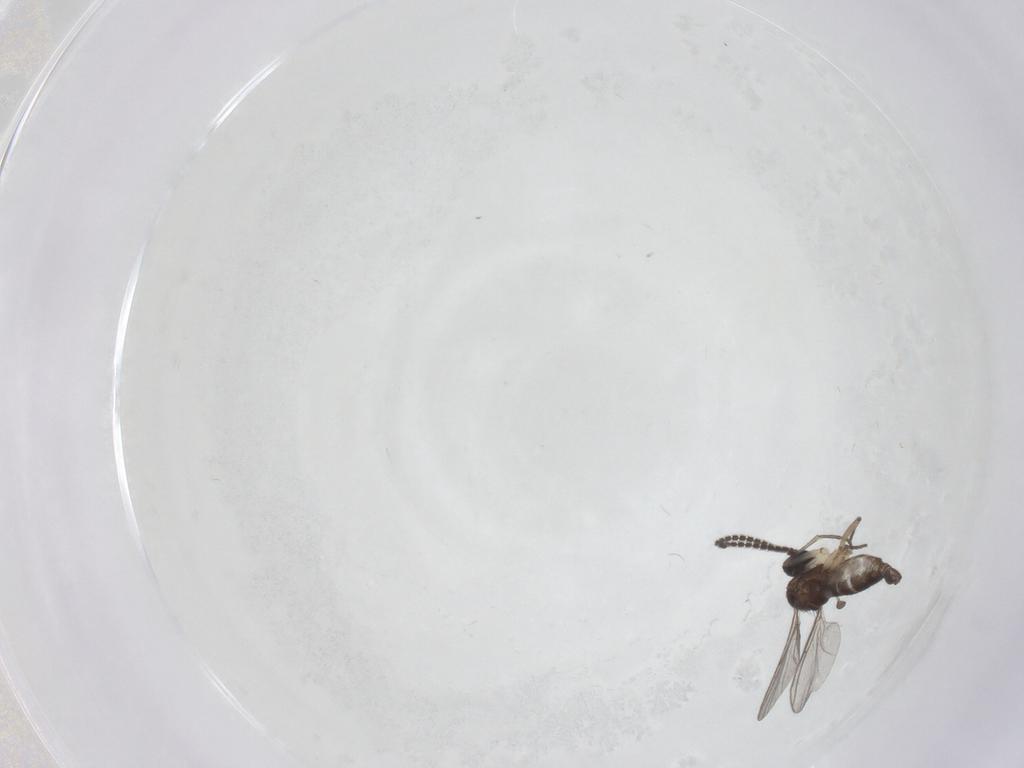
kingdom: Animalia
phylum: Arthropoda
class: Insecta
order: Diptera
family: Sciaridae
